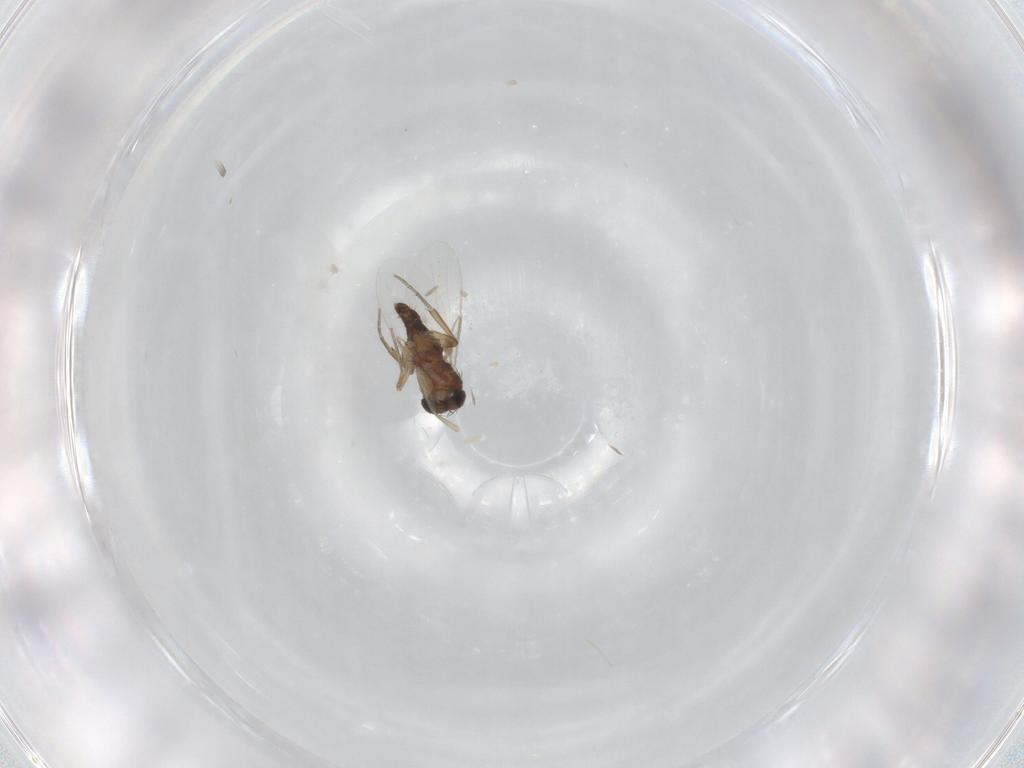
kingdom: Animalia
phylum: Arthropoda
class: Insecta
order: Diptera
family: Phoridae
